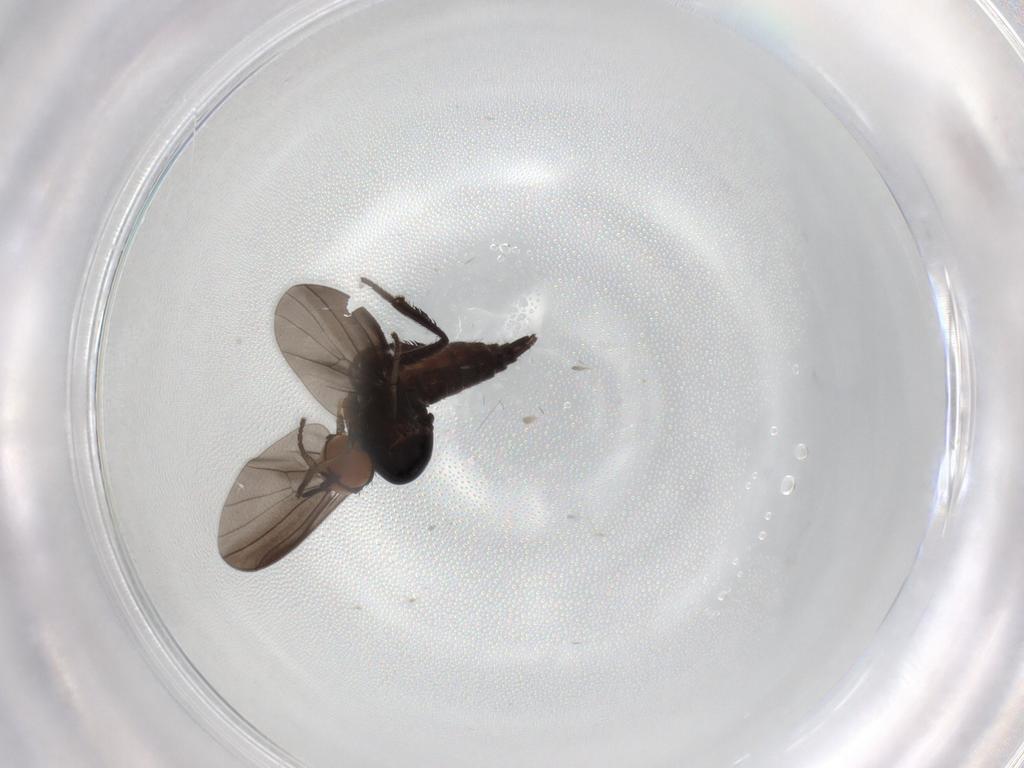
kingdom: Animalia
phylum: Arthropoda
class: Insecta
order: Diptera
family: Empididae
